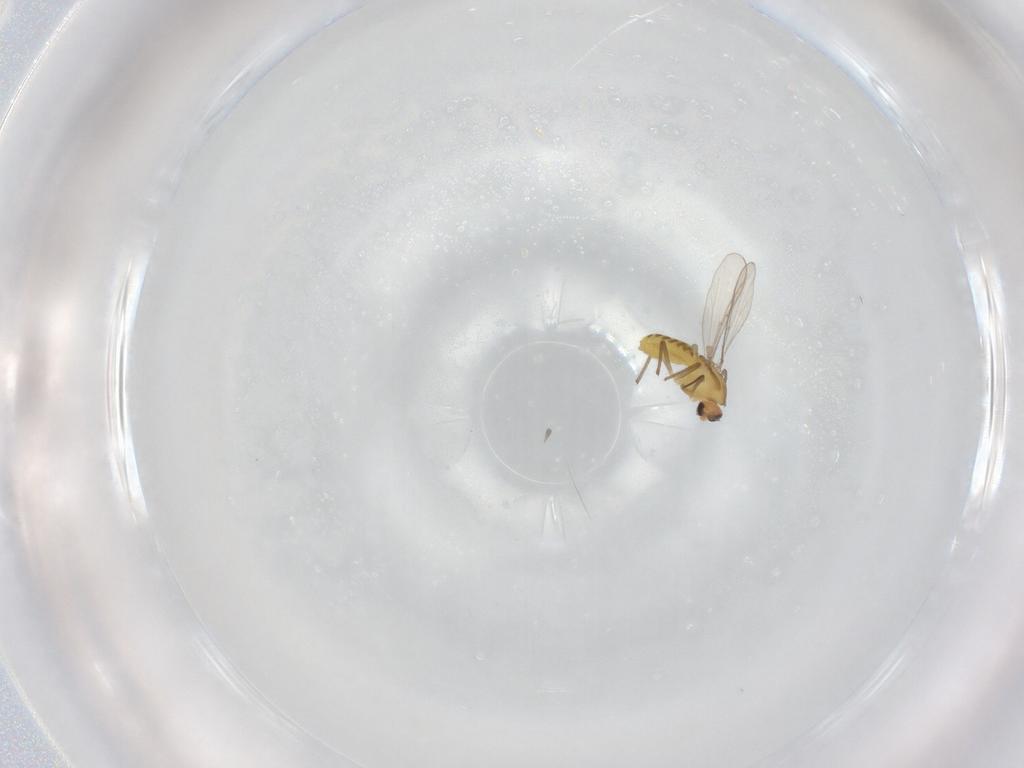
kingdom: Animalia
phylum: Arthropoda
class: Insecta
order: Diptera
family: Chironomidae
